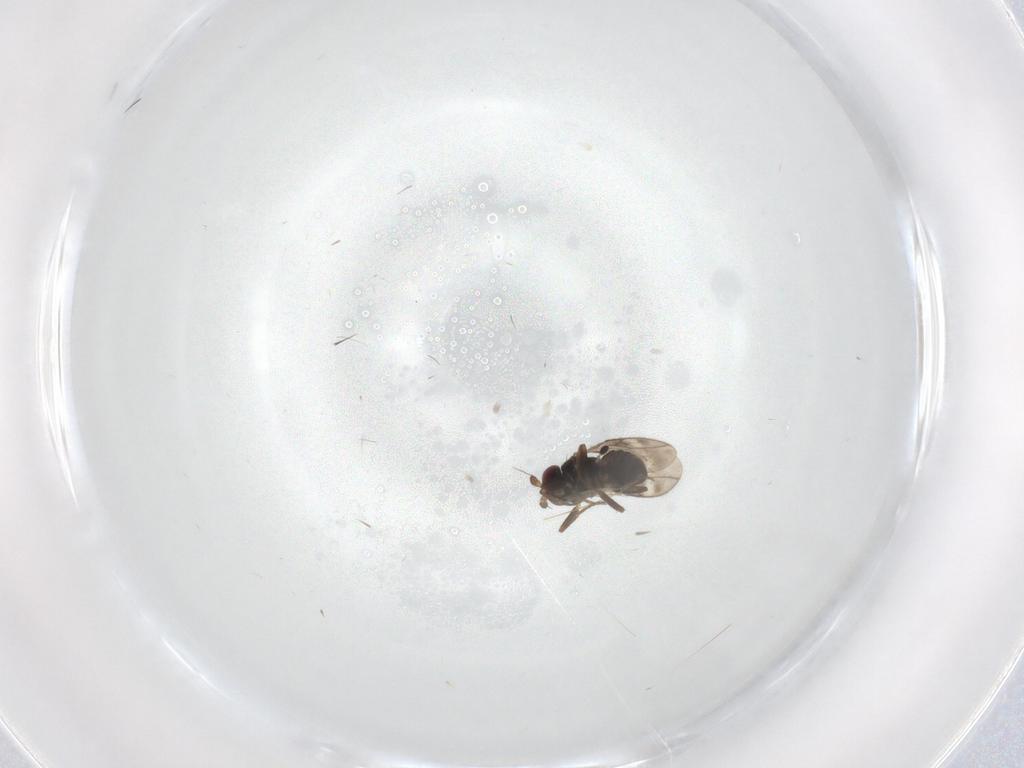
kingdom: Animalia
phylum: Arthropoda
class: Insecta
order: Diptera
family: Sphaeroceridae
